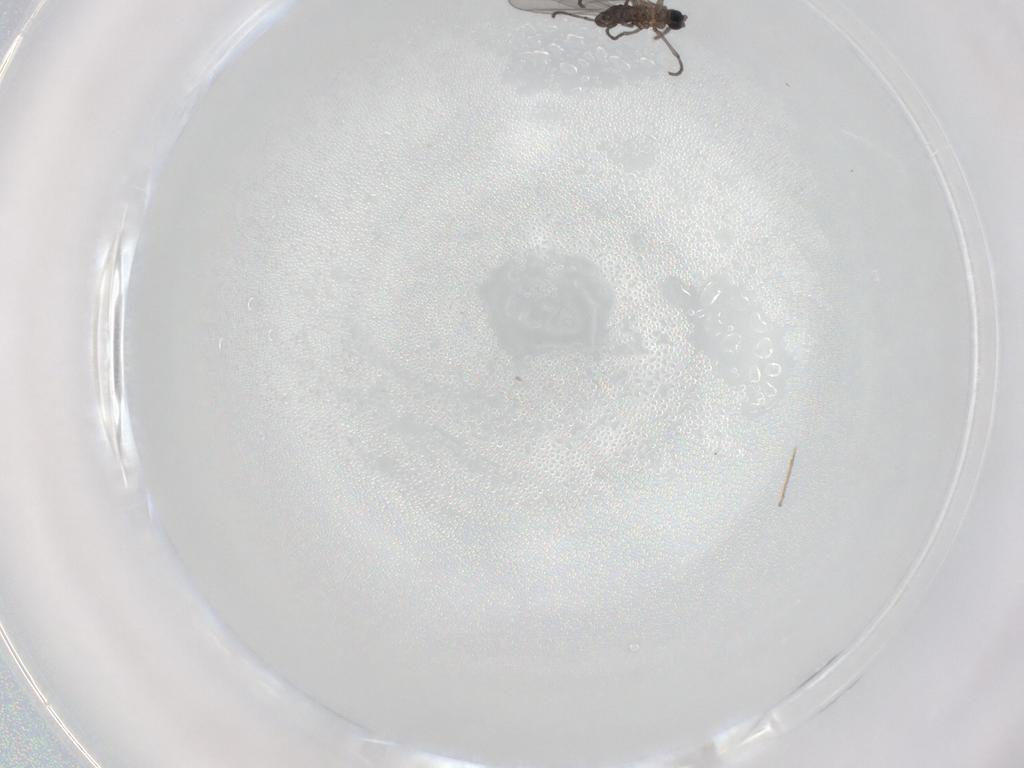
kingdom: Animalia
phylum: Arthropoda
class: Insecta
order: Diptera
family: Sciaridae
